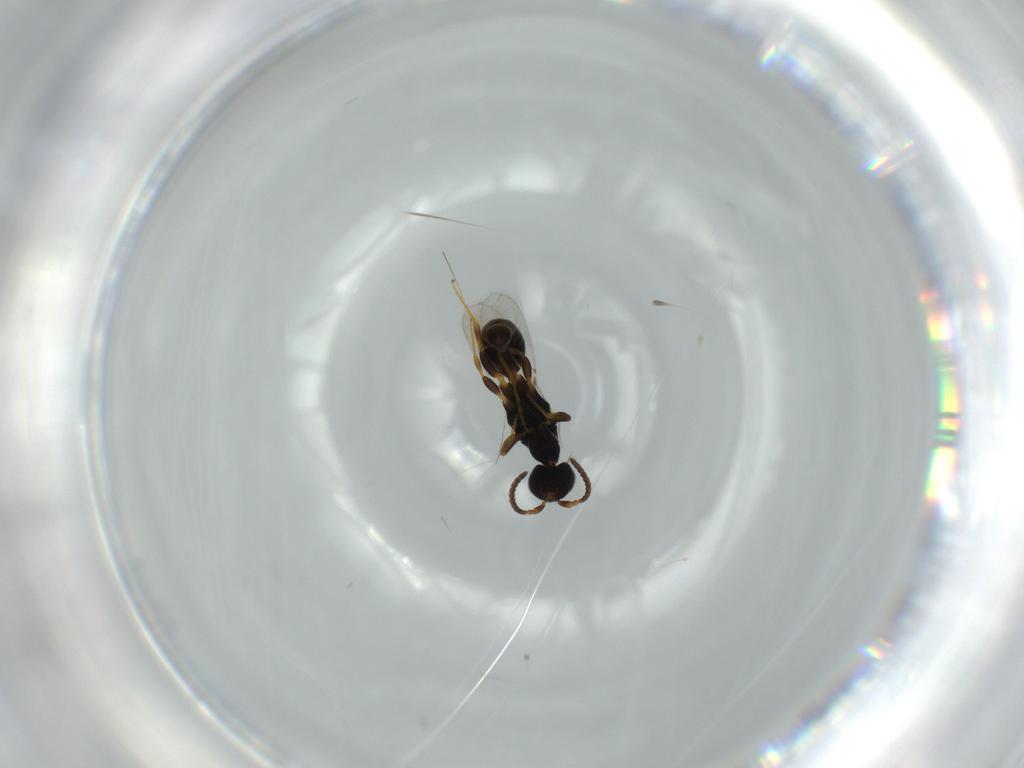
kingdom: Animalia
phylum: Arthropoda
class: Insecta
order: Hymenoptera
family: Bethylidae
